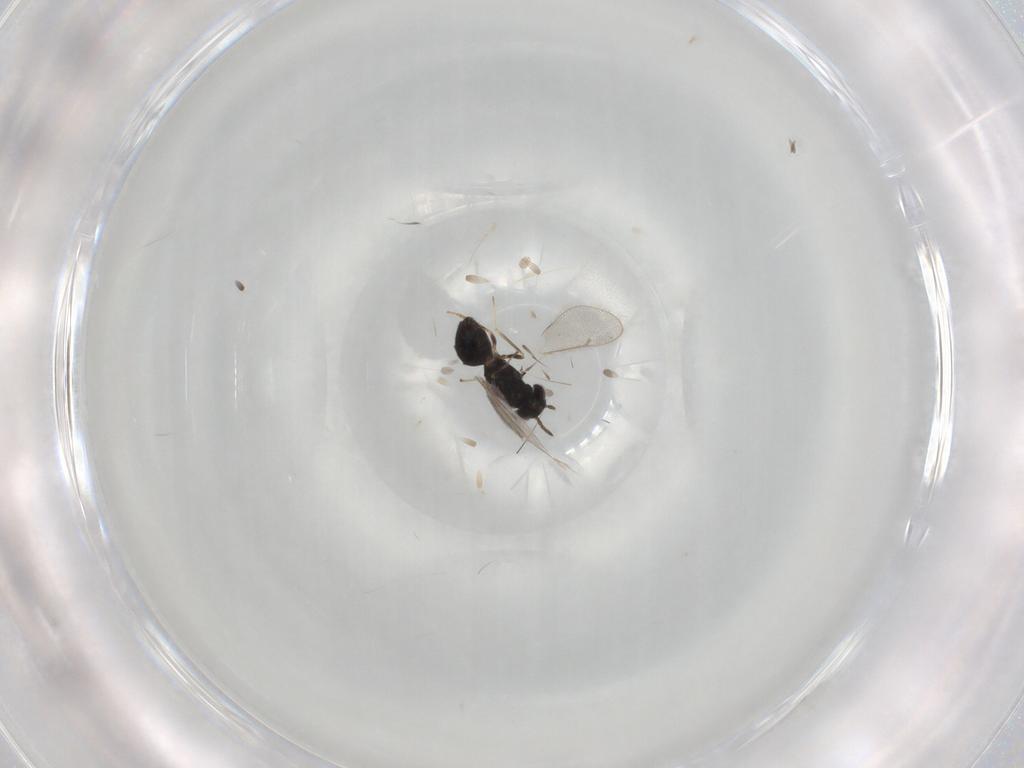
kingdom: Animalia
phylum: Arthropoda
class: Insecta
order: Hymenoptera
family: Eulophidae
